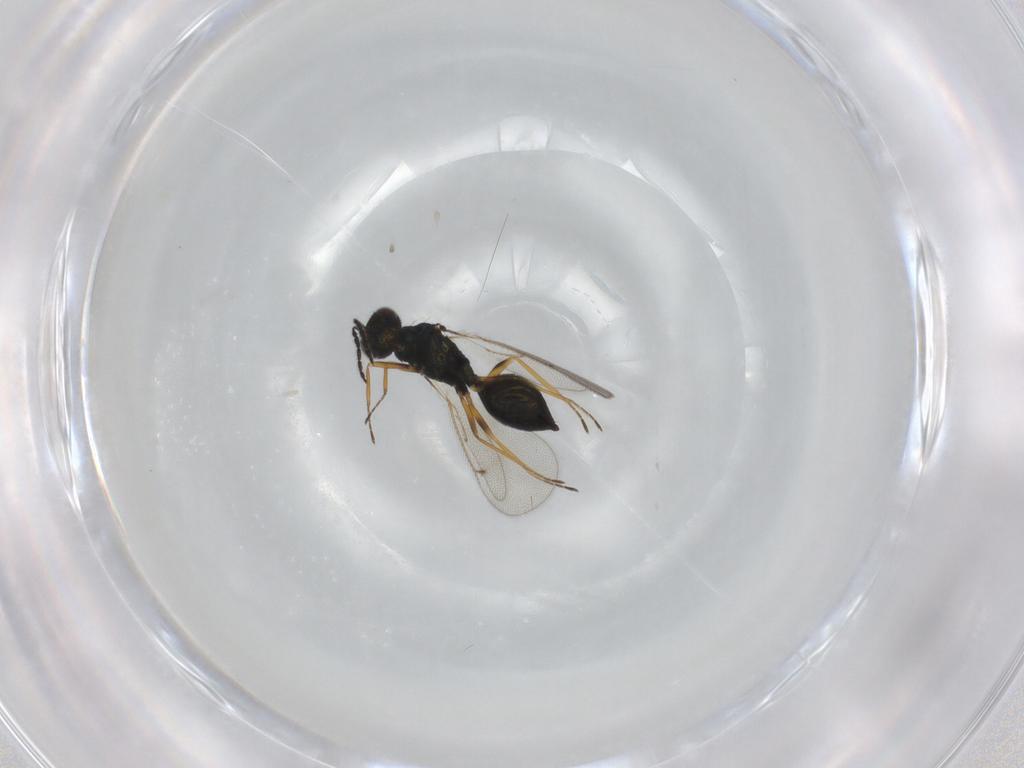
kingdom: Animalia
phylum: Arthropoda
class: Insecta
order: Hymenoptera
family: Eulophidae
